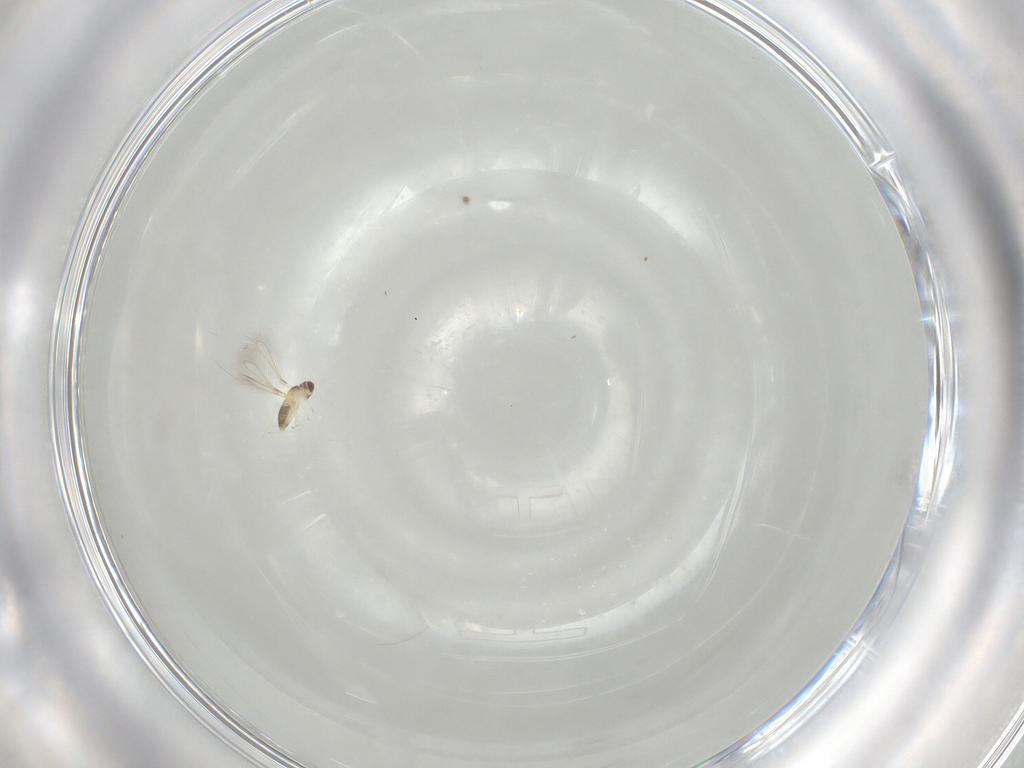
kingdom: Animalia
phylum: Arthropoda
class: Insecta
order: Hymenoptera
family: Mymaridae
